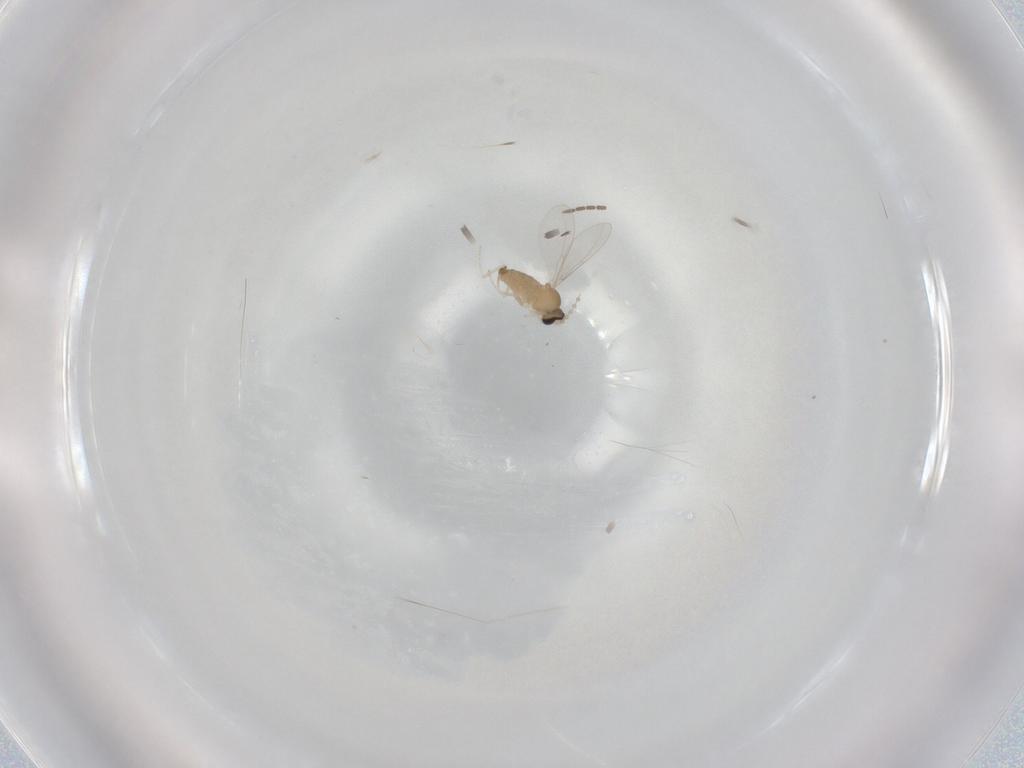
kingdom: Animalia
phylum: Arthropoda
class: Insecta
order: Diptera
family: Cecidomyiidae
